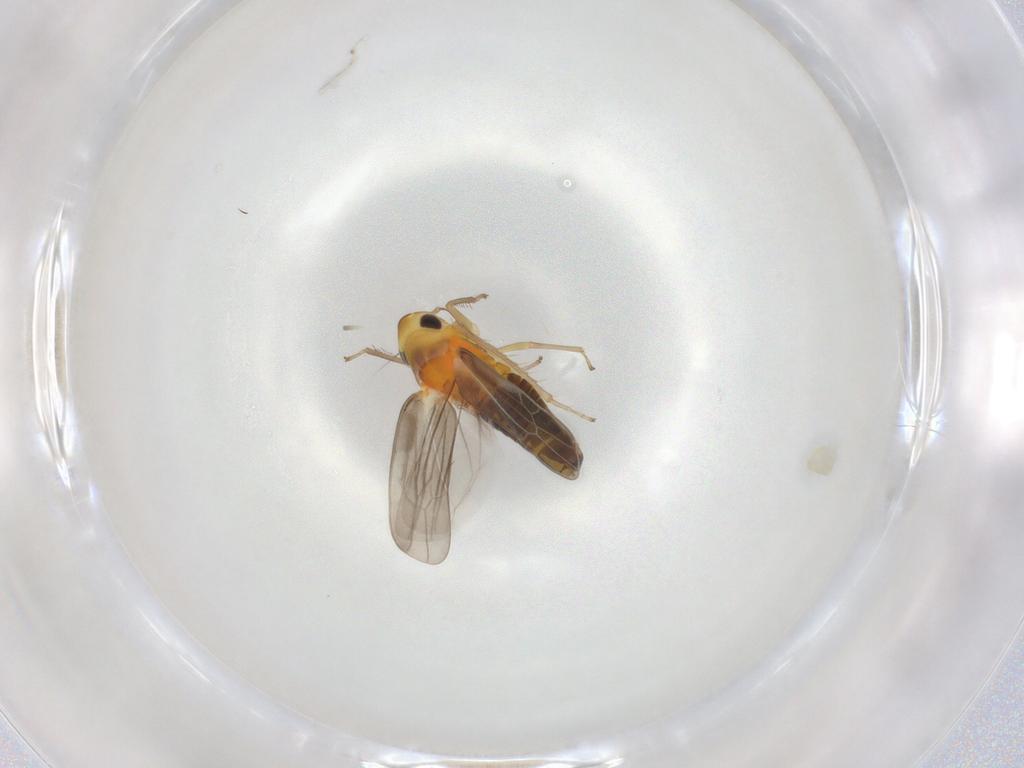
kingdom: Animalia
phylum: Arthropoda
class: Insecta
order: Hemiptera
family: Cicadellidae
